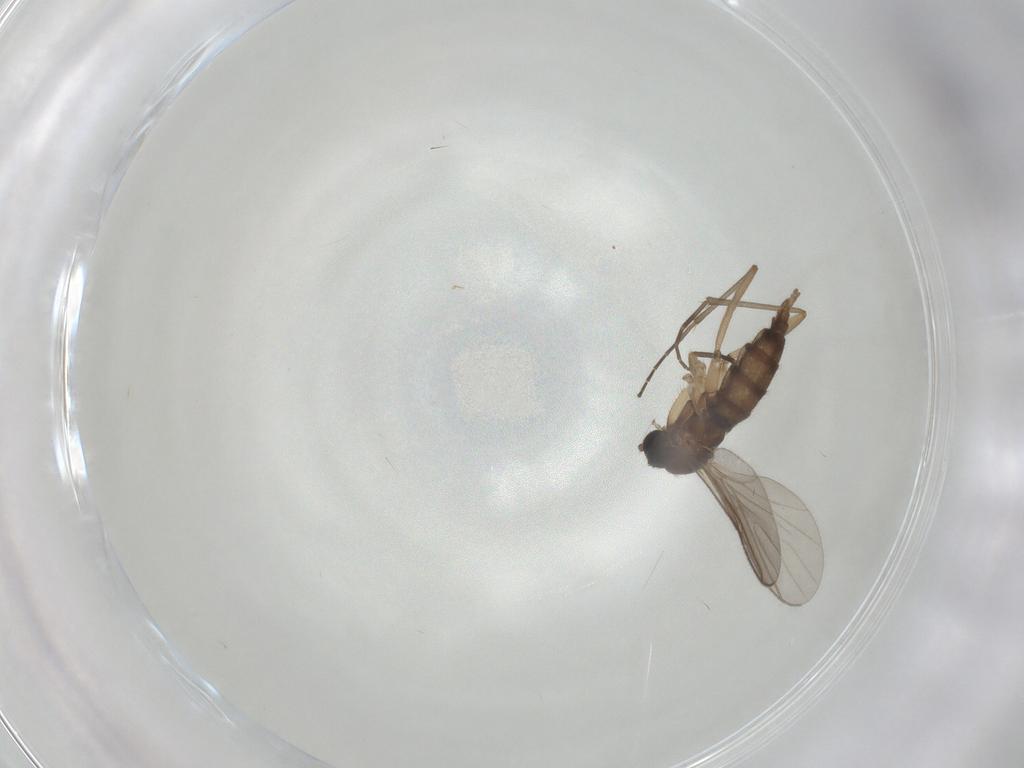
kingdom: Animalia
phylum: Arthropoda
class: Insecta
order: Diptera
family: Sciaridae
